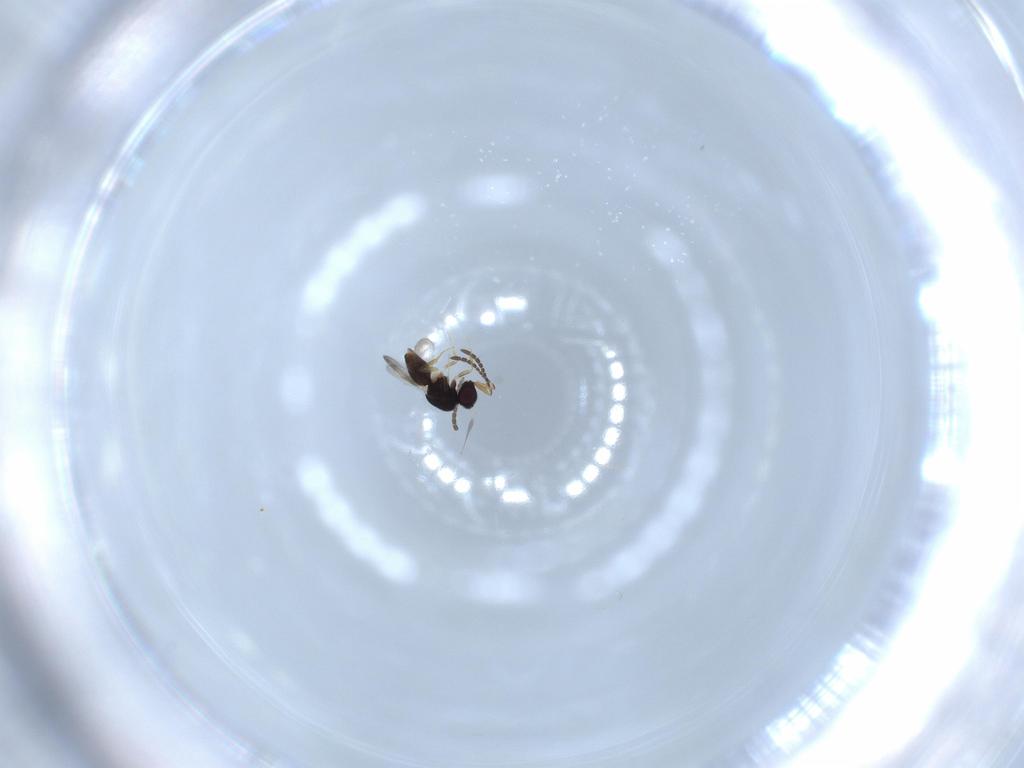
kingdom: Animalia
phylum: Arthropoda
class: Insecta
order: Hymenoptera
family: Ceraphronidae
